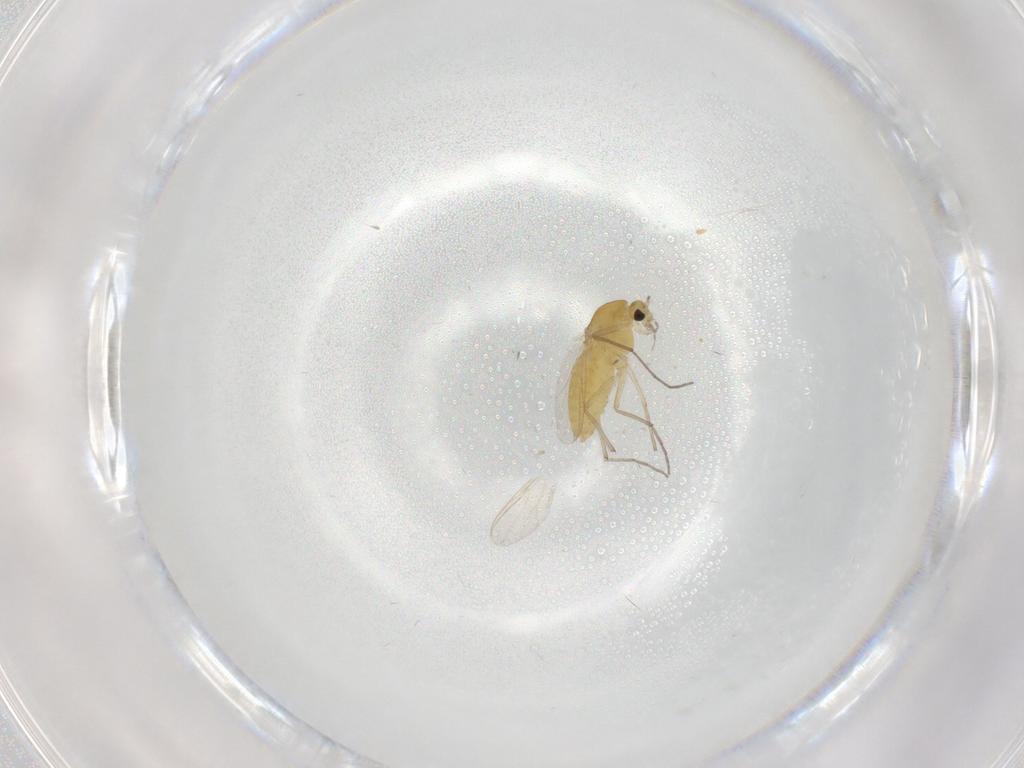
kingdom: Animalia
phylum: Arthropoda
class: Insecta
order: Diptera
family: Chironomidae
